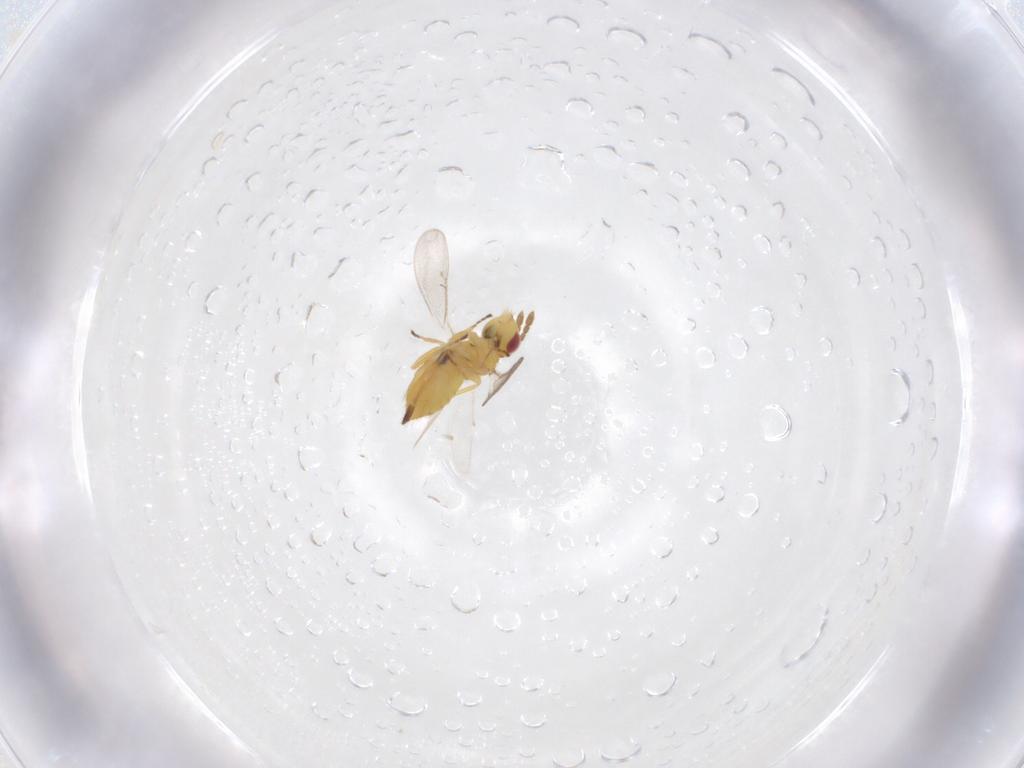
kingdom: Animalia
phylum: Arthropoda
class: Insecta
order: Hymenoptera
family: Eulophidae
